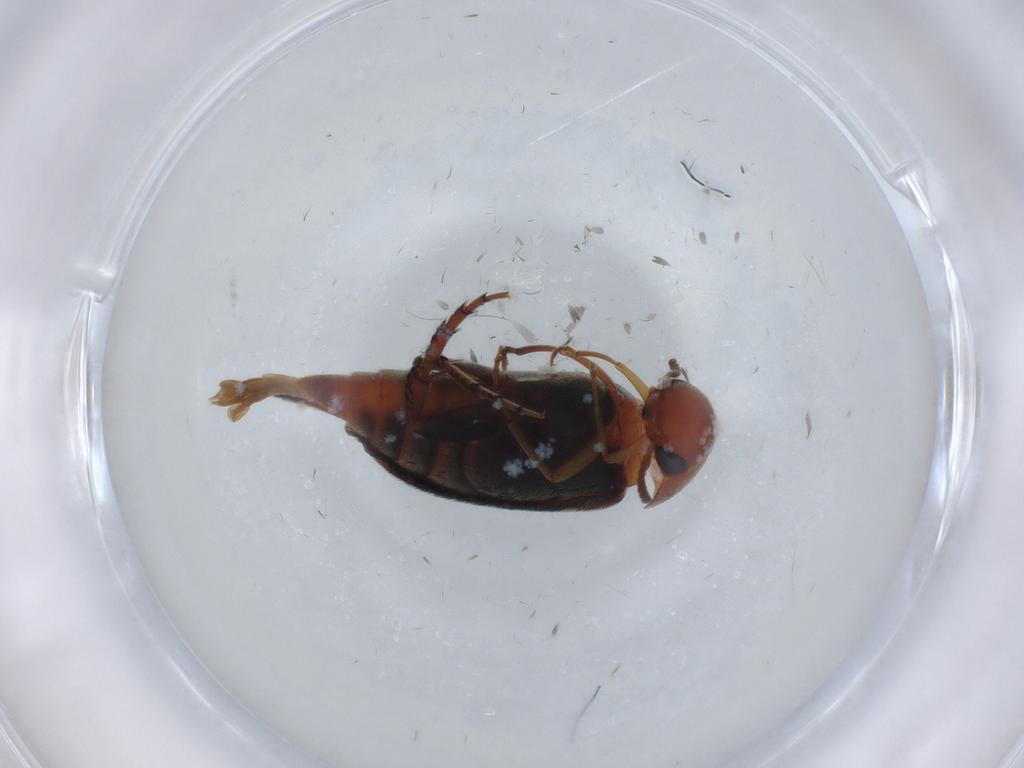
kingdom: Animalia
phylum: Arthropoda
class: Insecta
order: Coleoptera
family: Mordellidae
